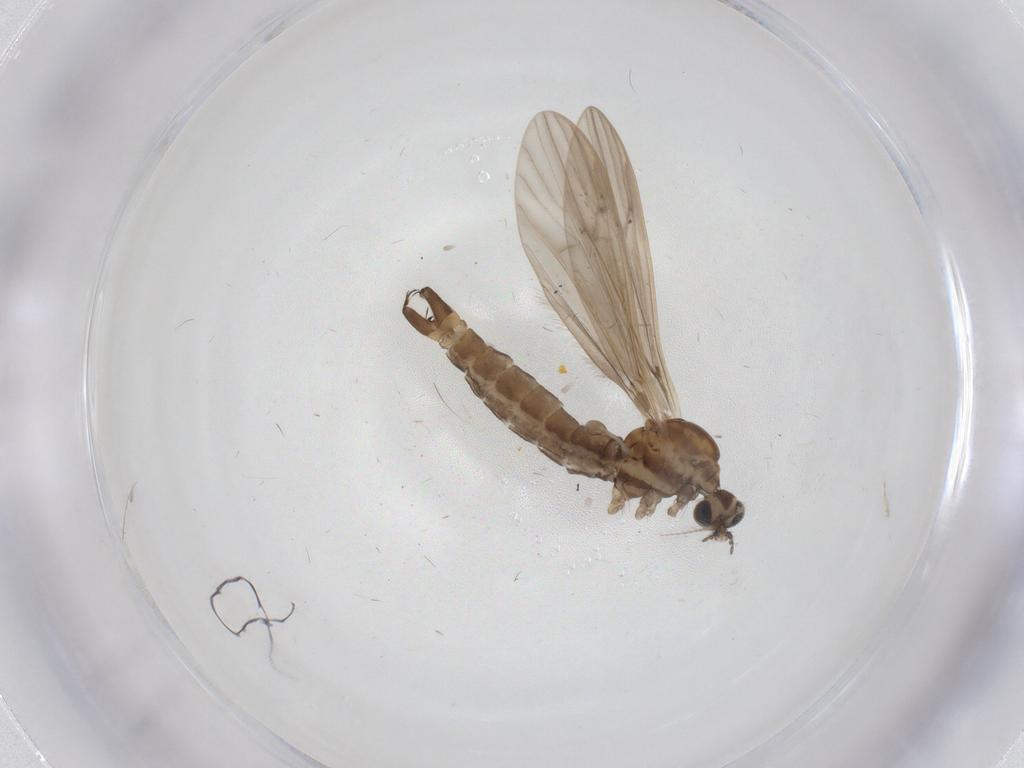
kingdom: Animalia
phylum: Arthropoda
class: Insecta
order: Diptera
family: Limoniidae
